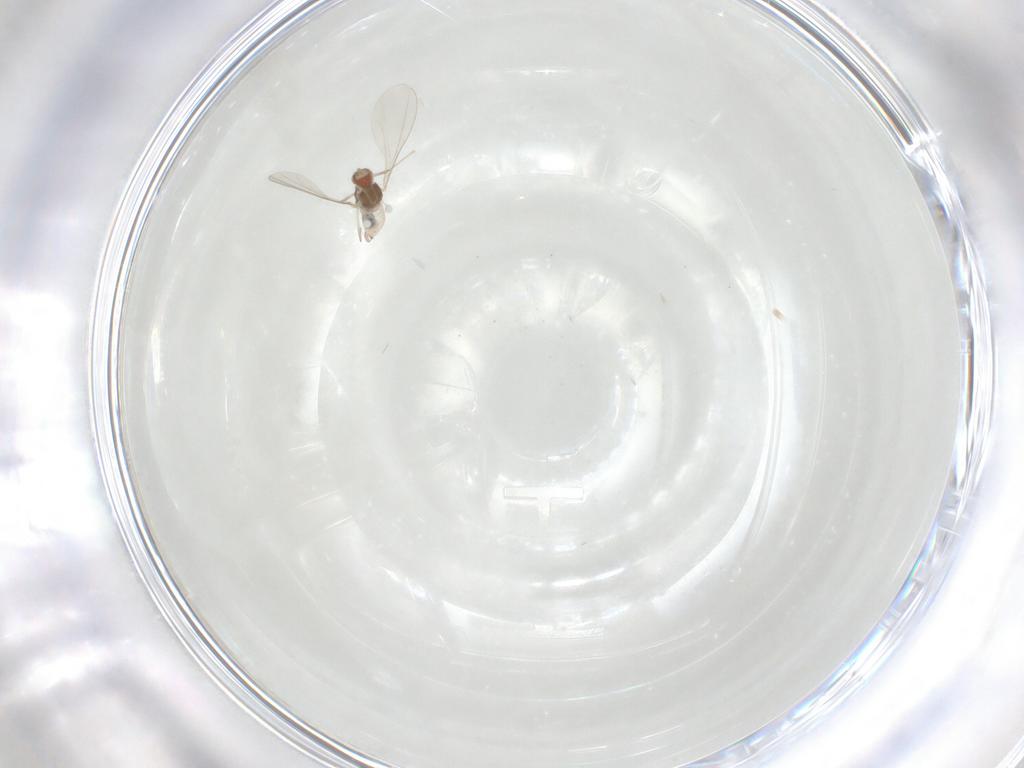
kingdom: Animalia
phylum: Arthropoda
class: Insecta
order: Diptera
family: Cecidomyiidae
